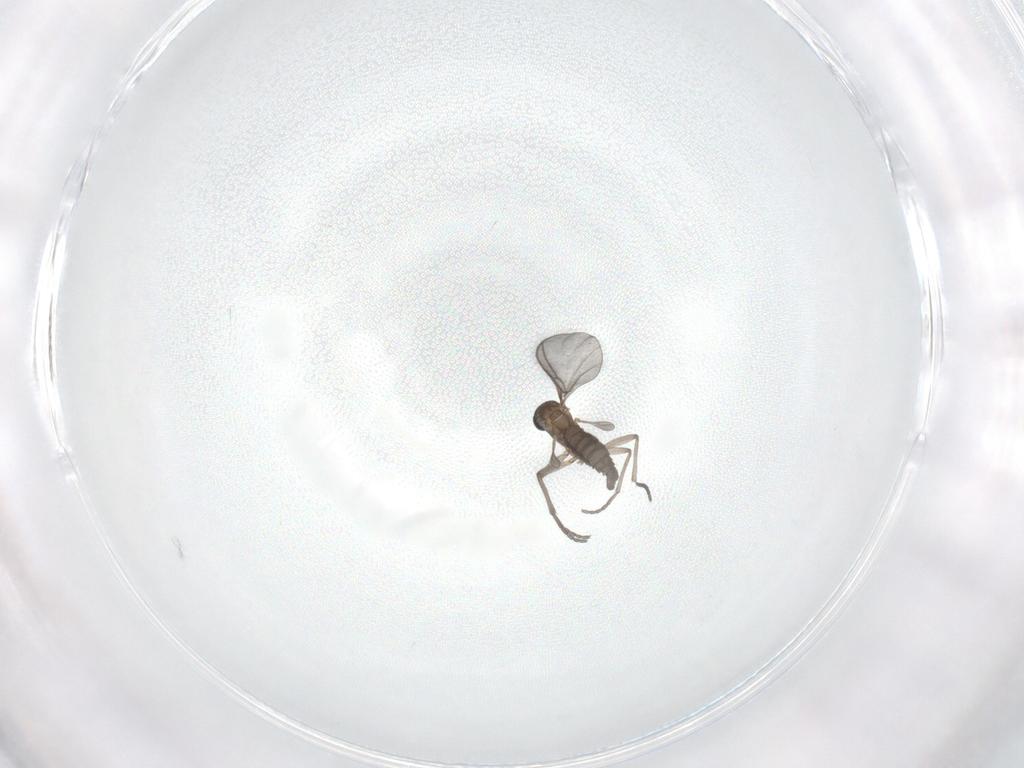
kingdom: Animalia
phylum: Arthropoda
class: Insecta
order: Diptera
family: Sciaridae
